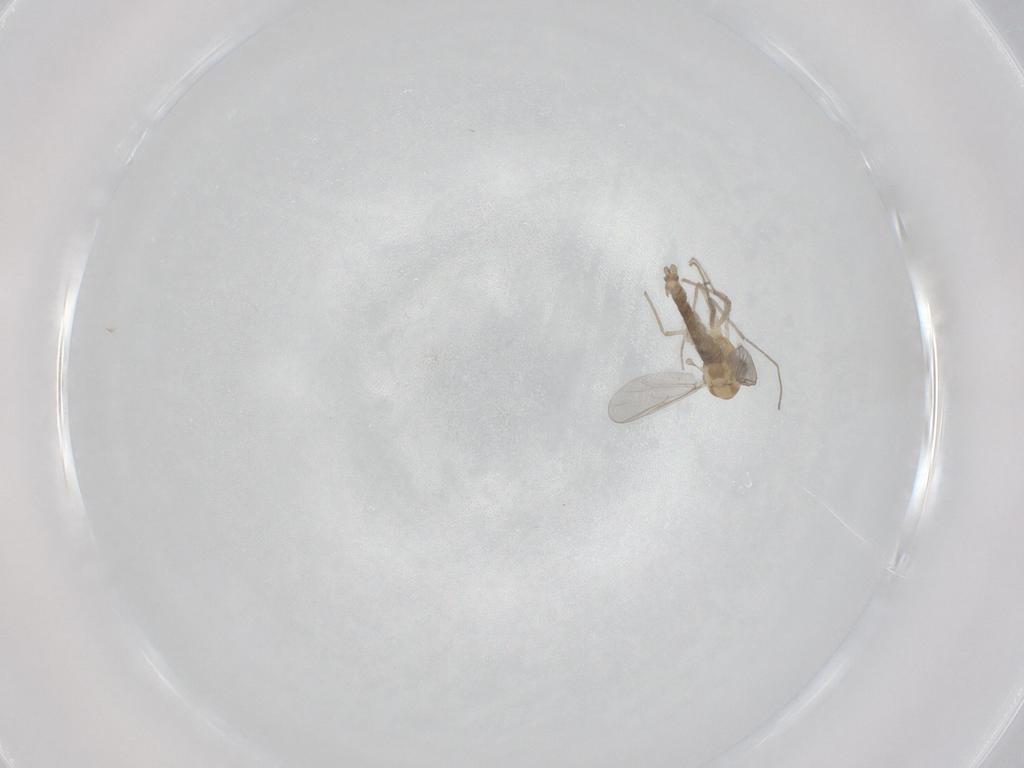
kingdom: Animalia
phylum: Arthropoda
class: Insecta
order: Diptera
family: Chironomidae
